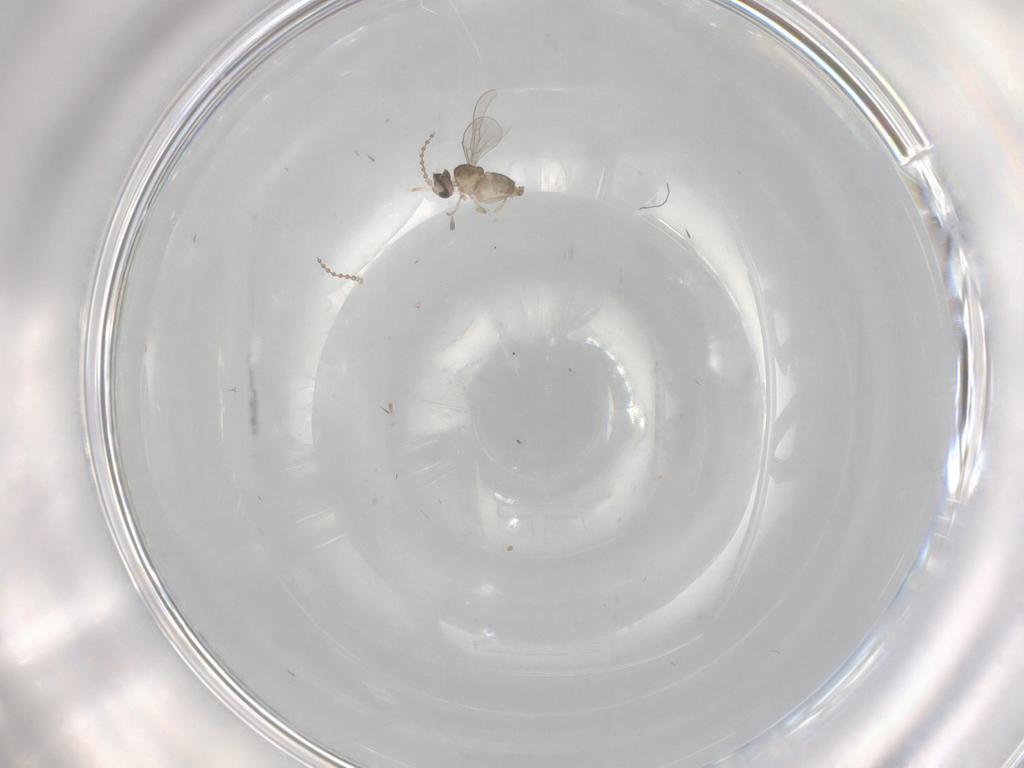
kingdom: Animalia
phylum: Arthropoda
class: Insecta
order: Diptera
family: Cecidomyiidae
